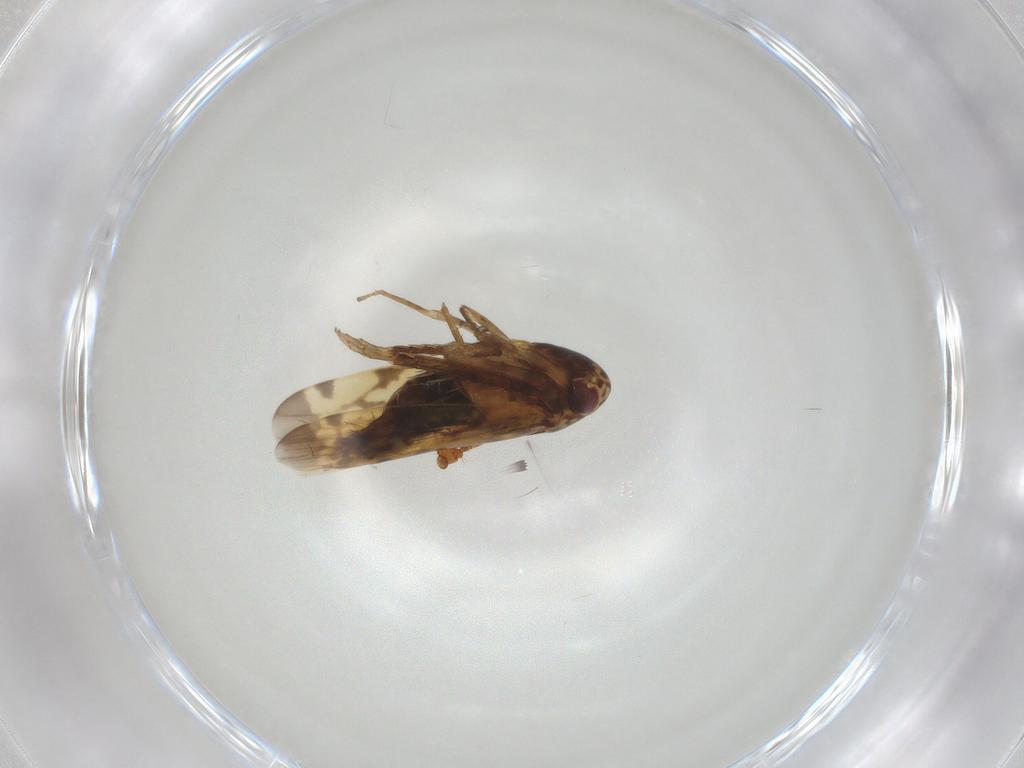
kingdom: Animalia
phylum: Arthropoda
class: Insecta
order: Hemiptera
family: Cicadellidae
